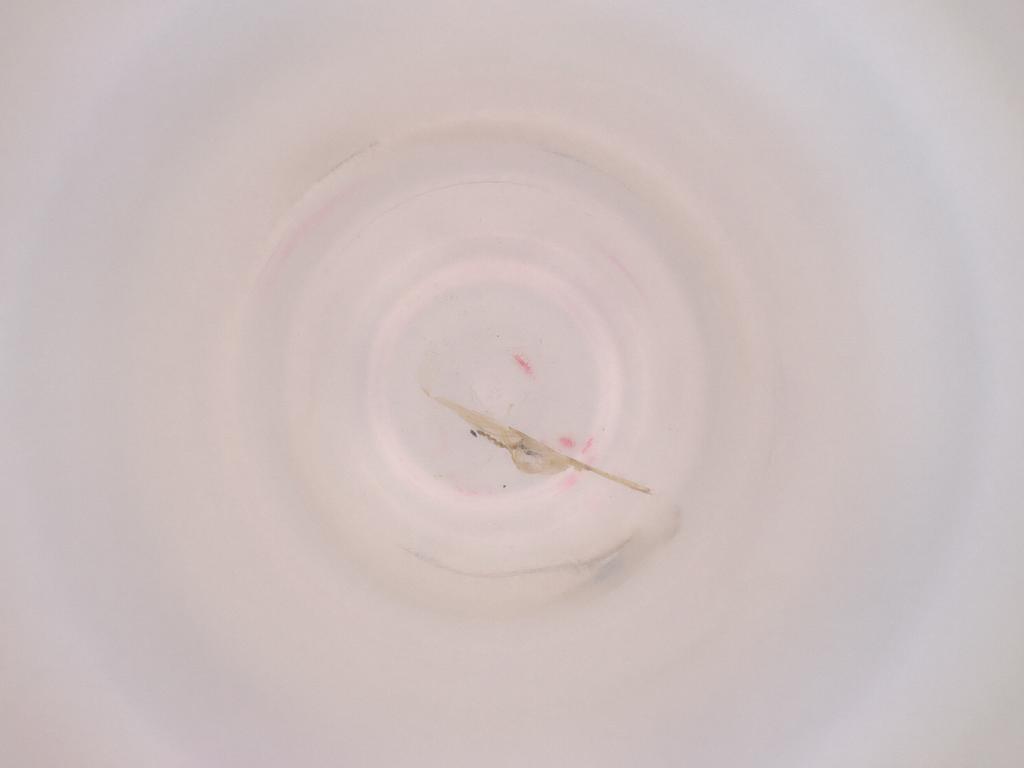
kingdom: Animalia
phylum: Arthropoda
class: Insecta
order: Diptera
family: Cecidomyiidae
